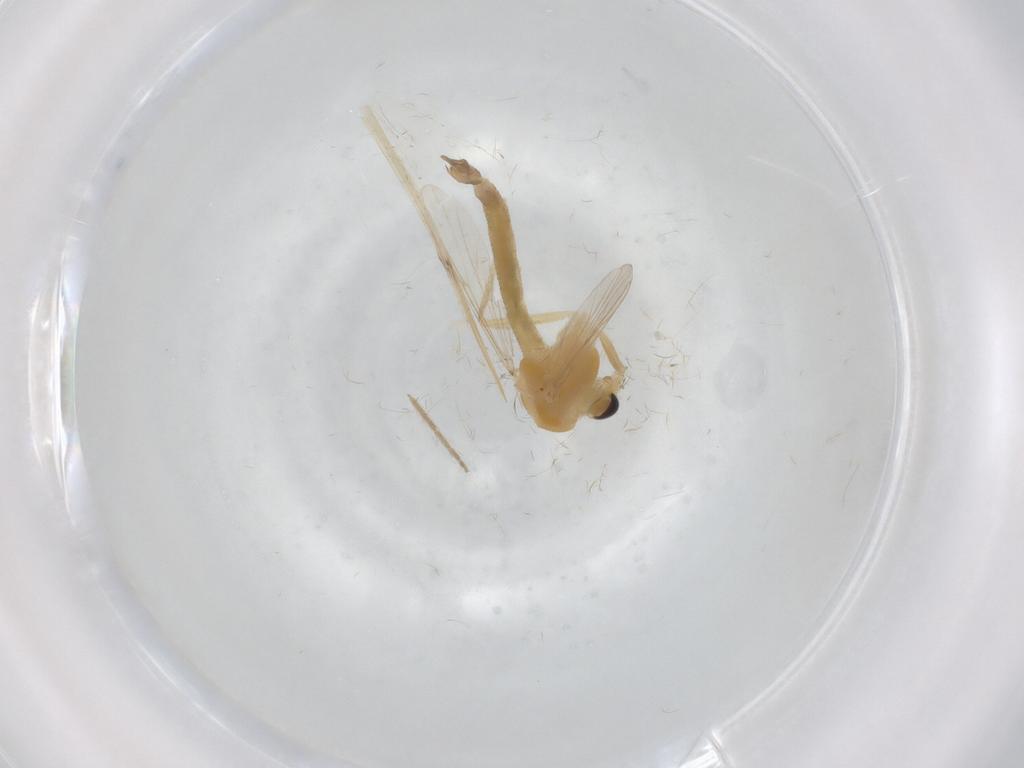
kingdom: Animalia
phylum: Arthropoda
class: Insecta
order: Diptera
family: Chironomidae
